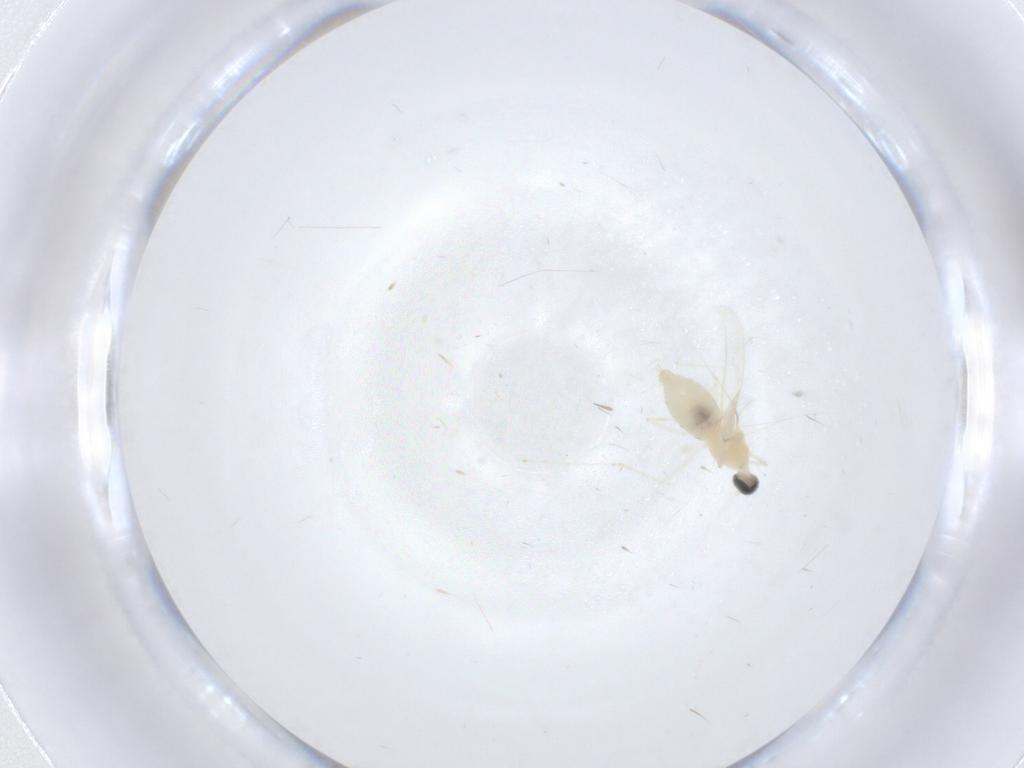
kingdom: Animalia
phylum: Arthropoda
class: Insecta
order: Diptera
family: Cecidomyiidae
